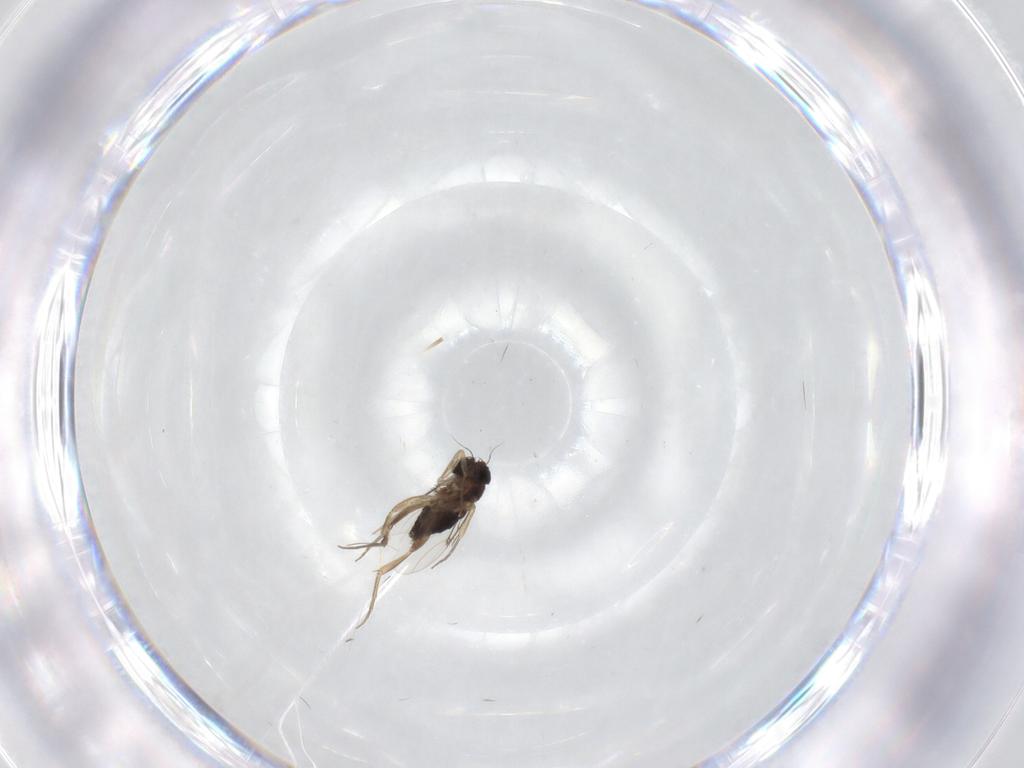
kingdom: Animalia
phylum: Arthropoda
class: Insecta
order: Diptera
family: Phoridae
